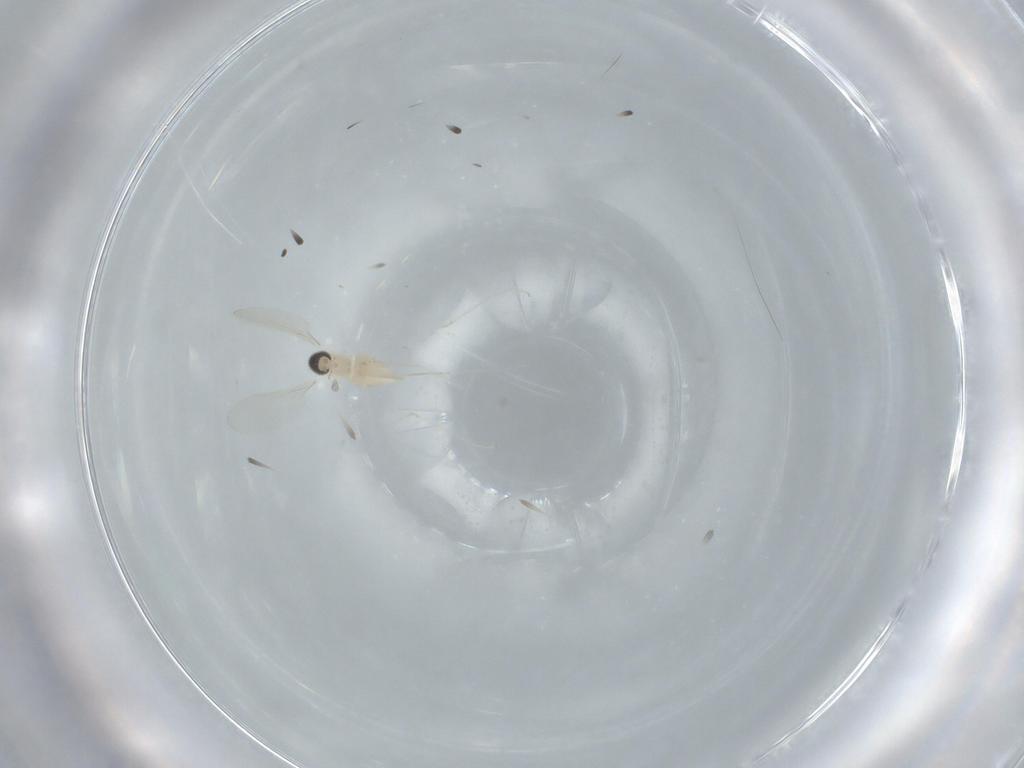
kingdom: Animalia
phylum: Arthropoda
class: Insecta
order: Diptera
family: Cecidomyiidae
